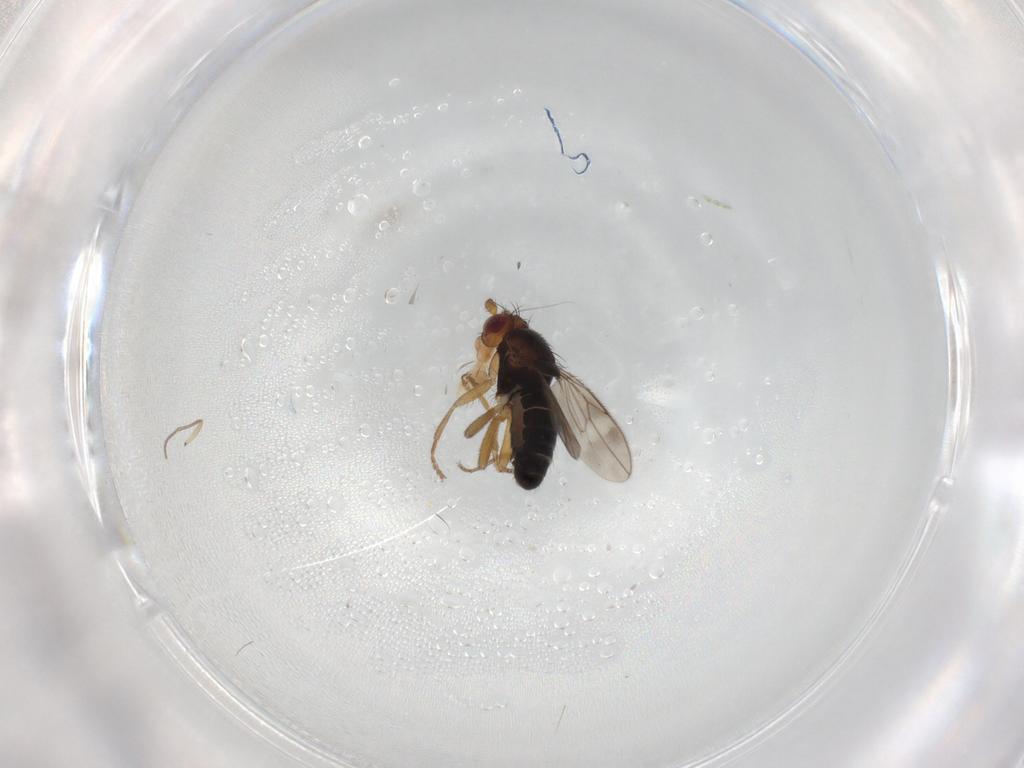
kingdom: Animalia
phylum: Arthropoda
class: Insecta
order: Diptera
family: Sphaeroceridae
